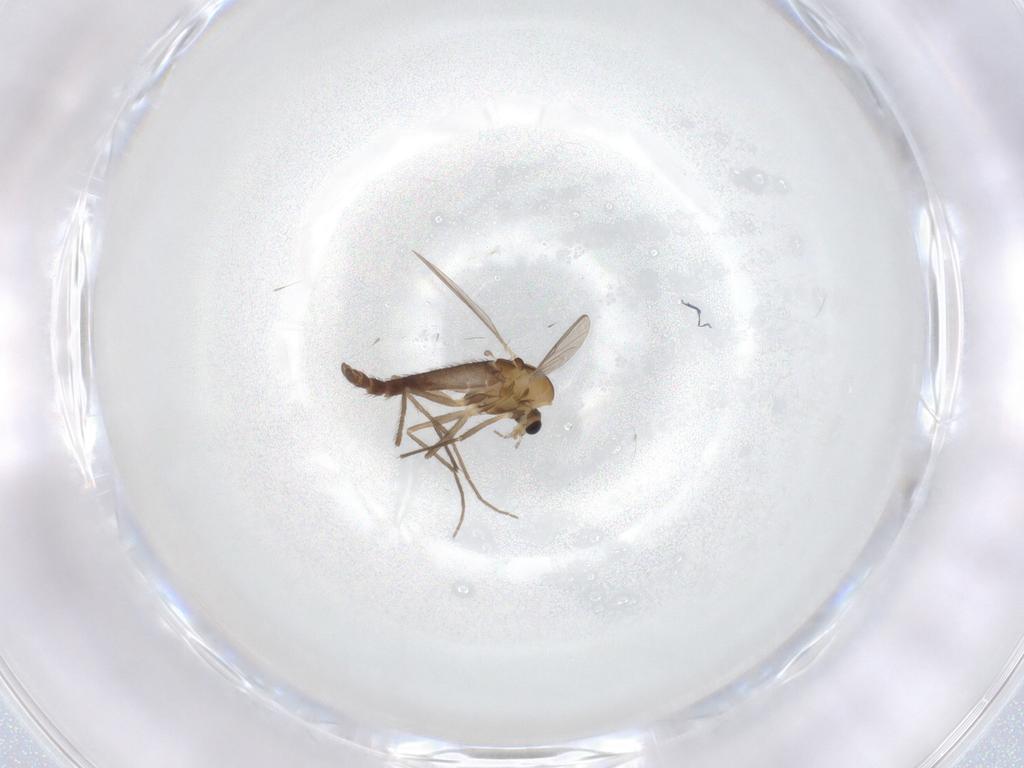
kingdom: Animalia
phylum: Arthropoda
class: Insecta
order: Diptera
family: Chironomidae
